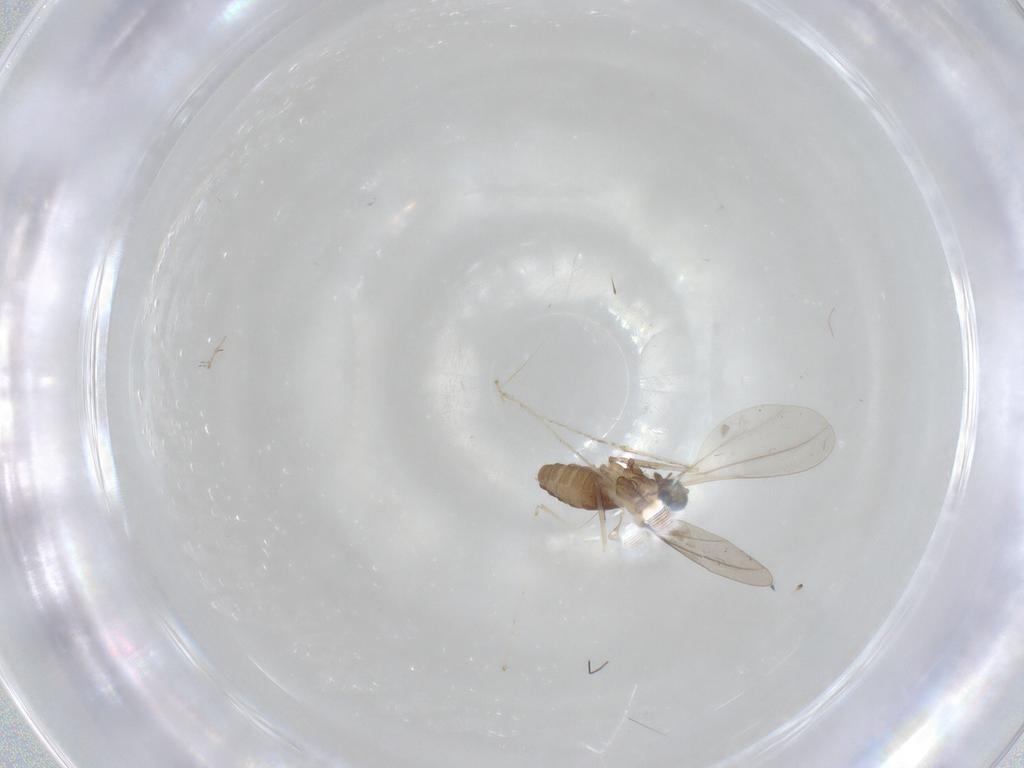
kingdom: Animalia
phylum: Arthropoda
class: Insecta
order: Diptera
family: Cecidomyiidae
